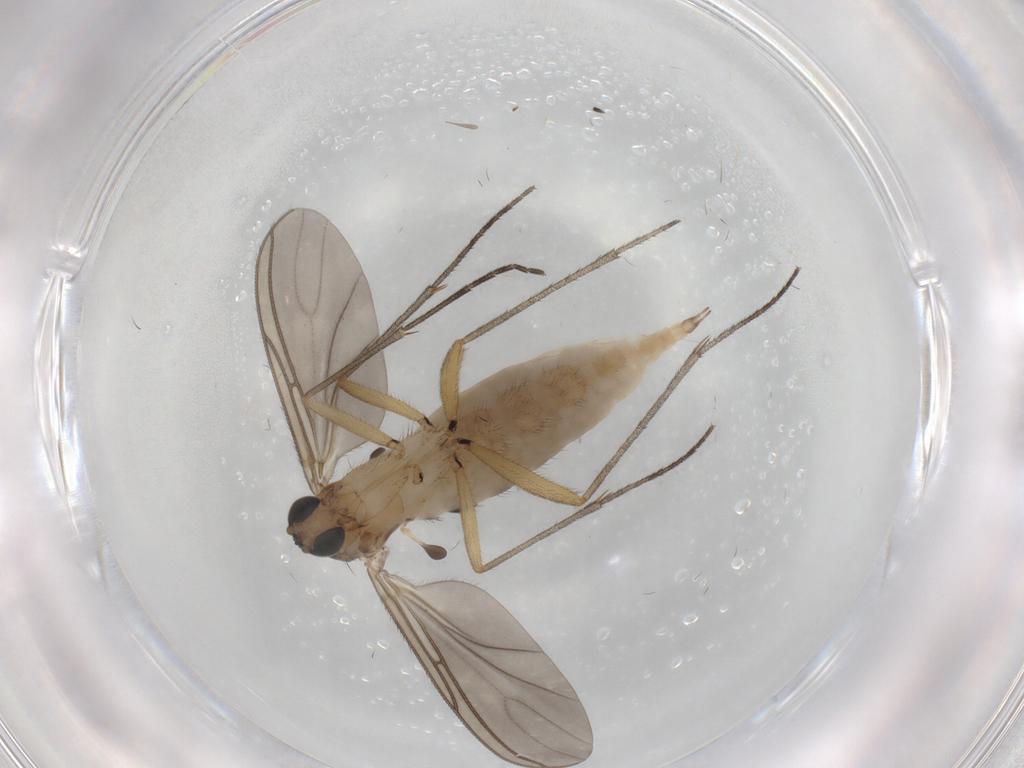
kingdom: Animalia
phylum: Arthropoda
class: Insecta
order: Diptera
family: Sciaridae
